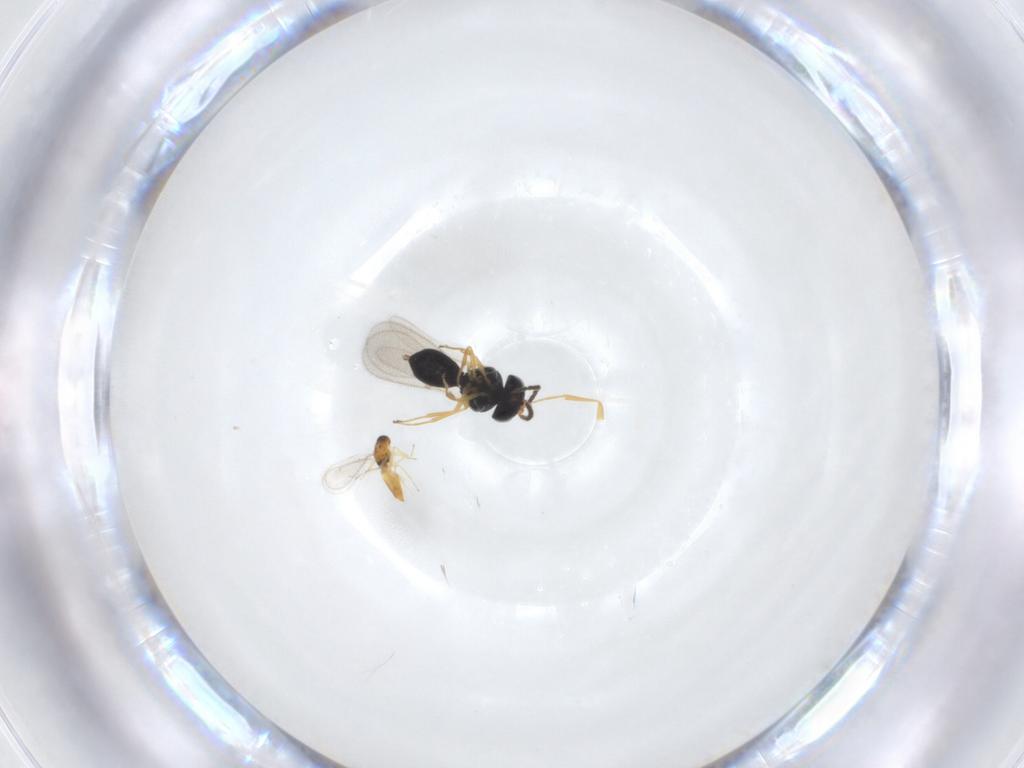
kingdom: Animalia
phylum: Arthropoda
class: Insecta
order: Hymenoptera
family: Scelionidae
